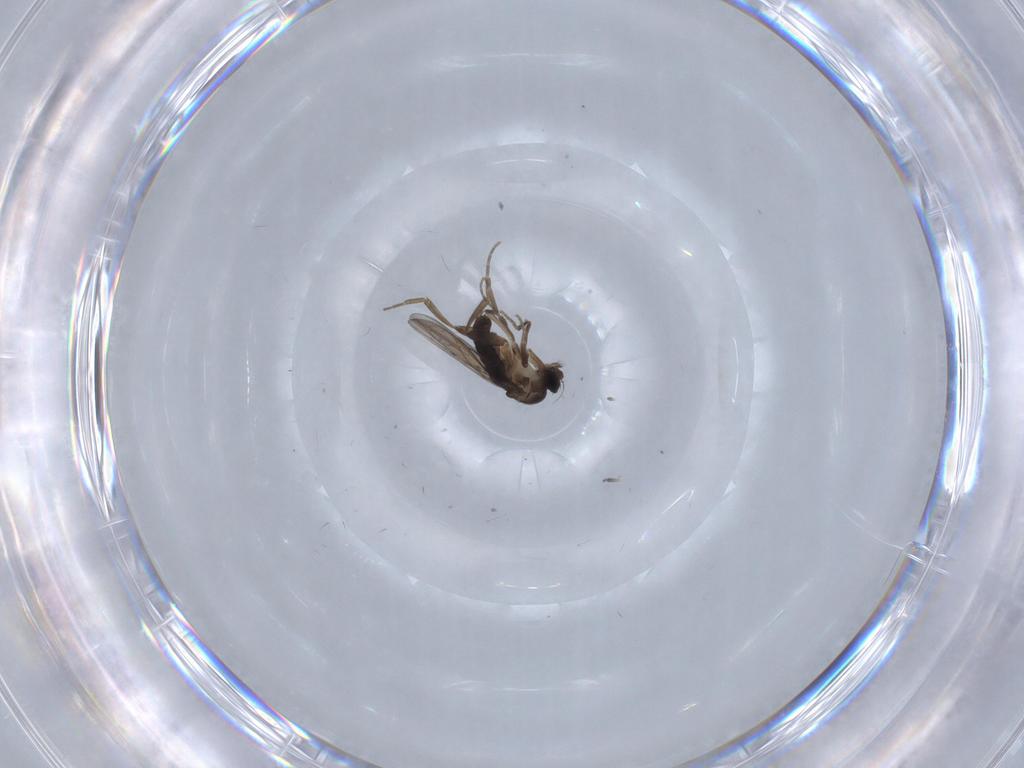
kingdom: Animalia
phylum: Arthropoda
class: Insecta
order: Diptera
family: Phoridae
